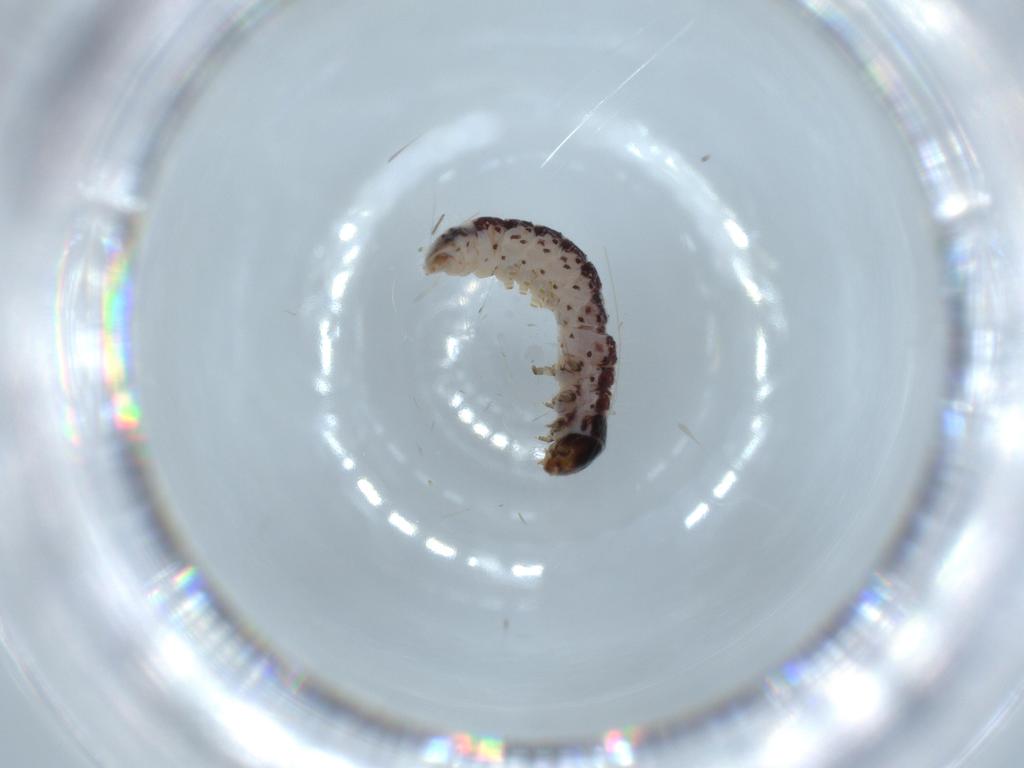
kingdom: Animalia
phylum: Arthropoda
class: Insecta
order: Lepidoptera
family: Cosmopterigidae
